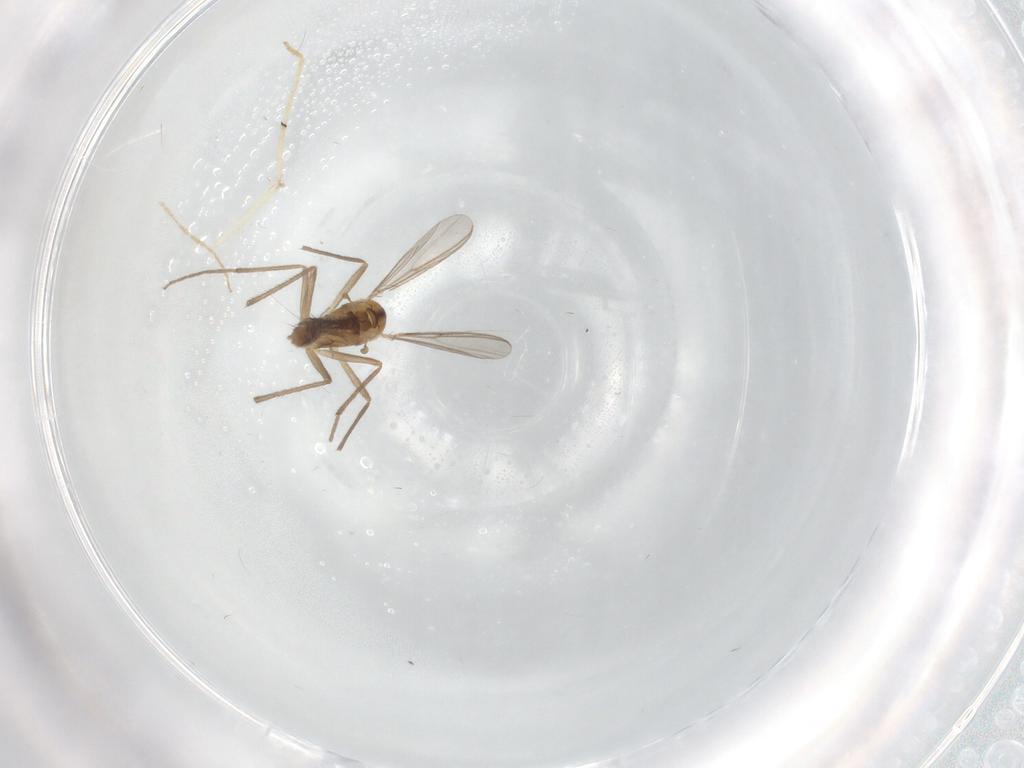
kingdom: Animalia
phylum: Arthropoda
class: Insecta
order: Diptera
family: Chironomidae
